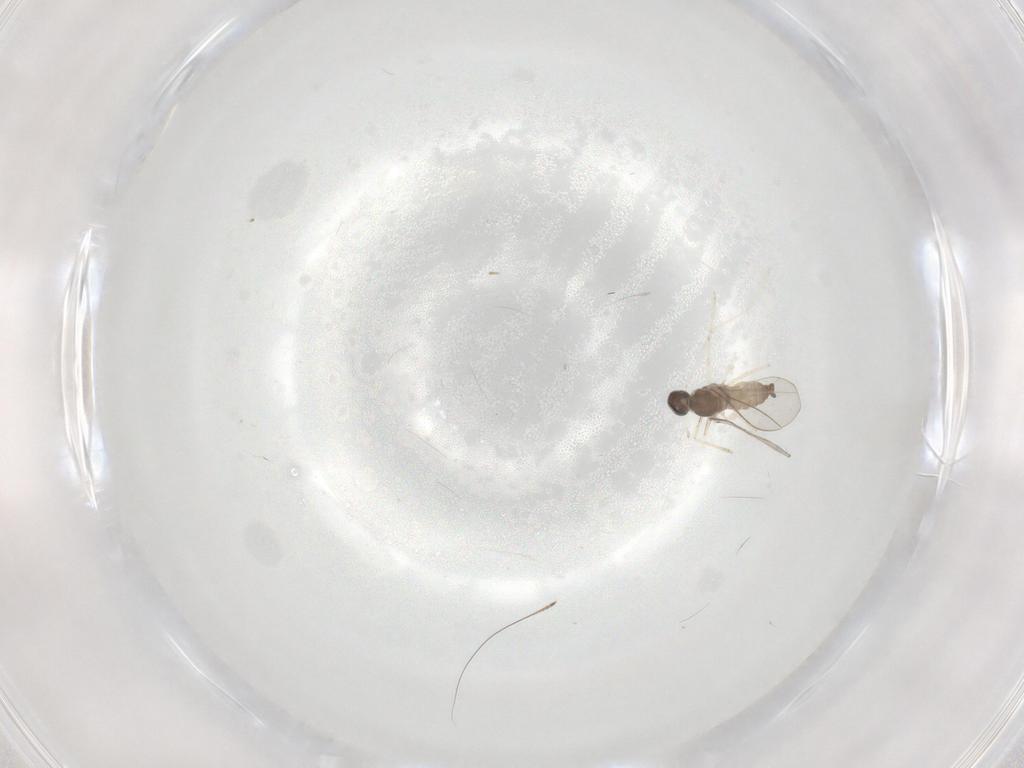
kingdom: Animalia
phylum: Arthropoda
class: Insecta
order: Diptera
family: Cecidomyiidae
